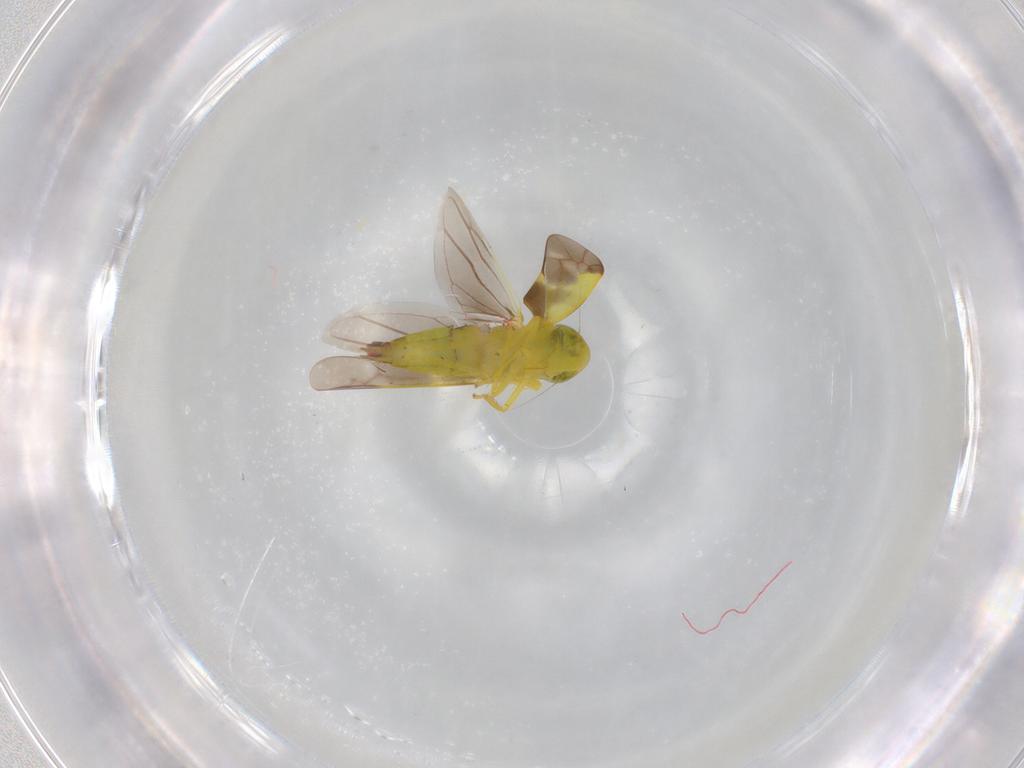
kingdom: Animalia
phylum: Arthropoda
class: Insecta
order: Hemiptera
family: Cicadellidae
